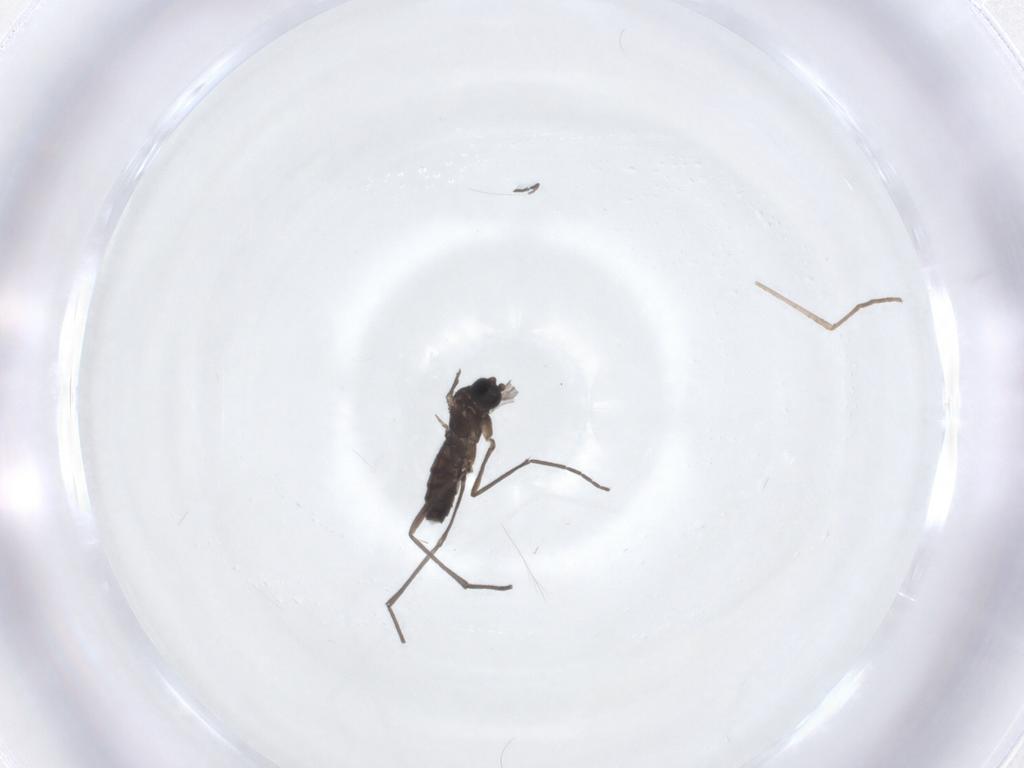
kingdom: Animalia
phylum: Arthropoda
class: Insecta
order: Diptera
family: Sciaridae
